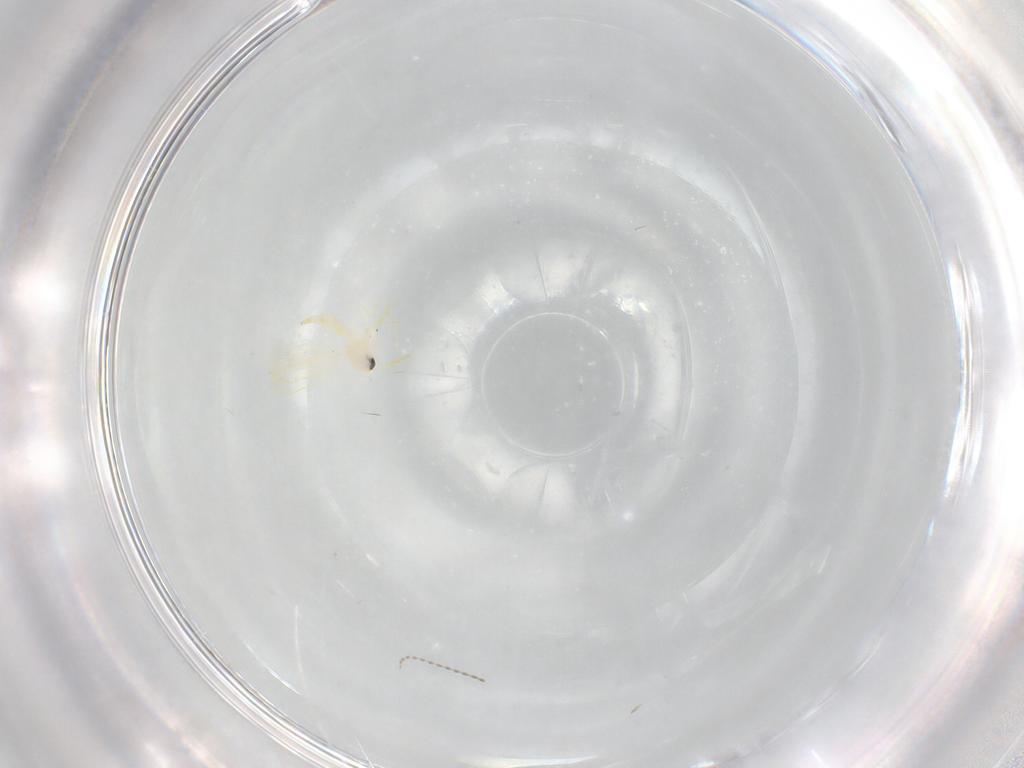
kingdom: Animalia
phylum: Arthropoda
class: Insecta
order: Hemiptera
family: Aleyrodidae
